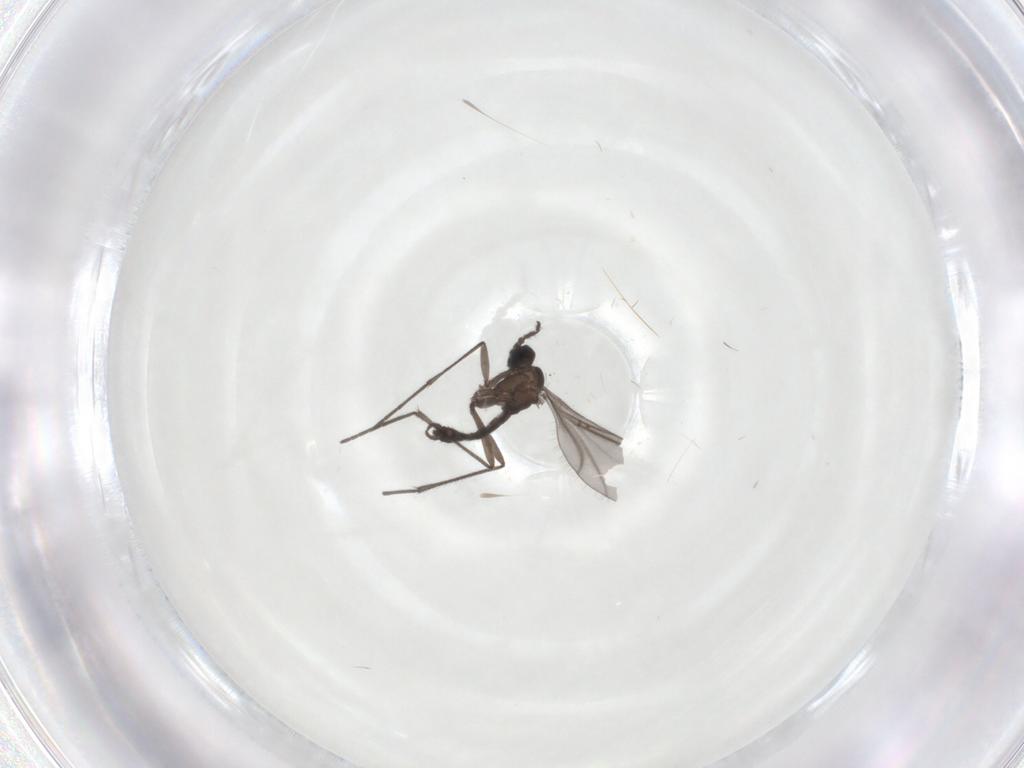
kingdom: Animalia
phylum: Arthropoda
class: Insecta
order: Diptera
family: Sciaridae
